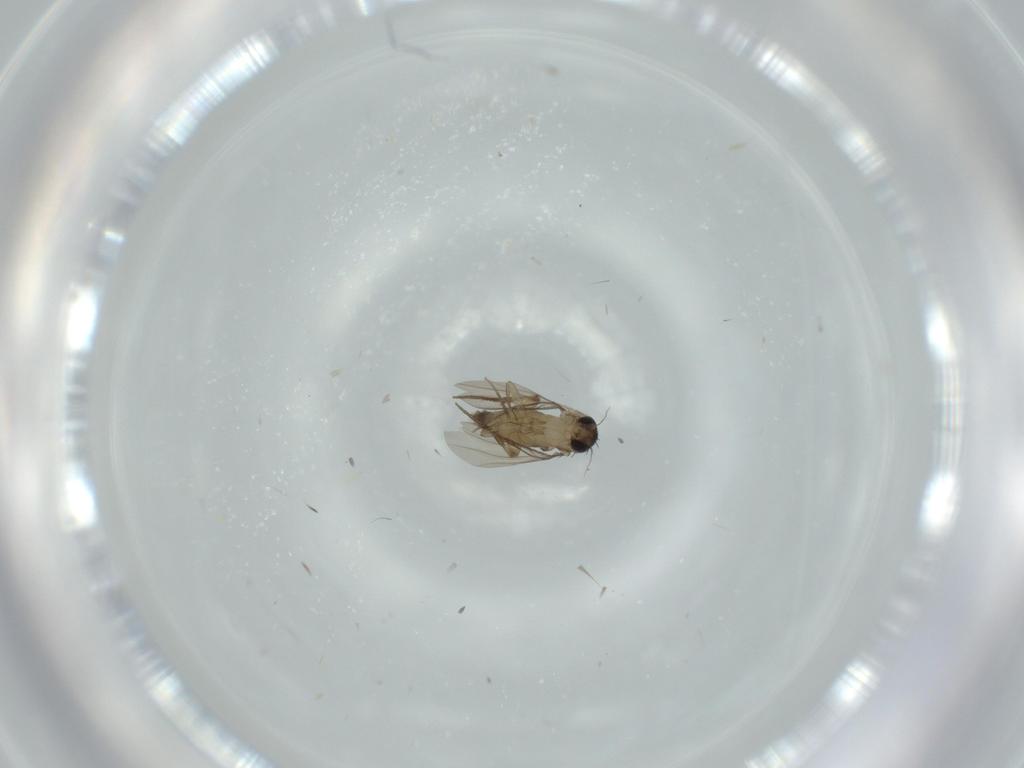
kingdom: Animalia
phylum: Arthropoda
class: Insecta
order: Diptera
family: Phoridae
